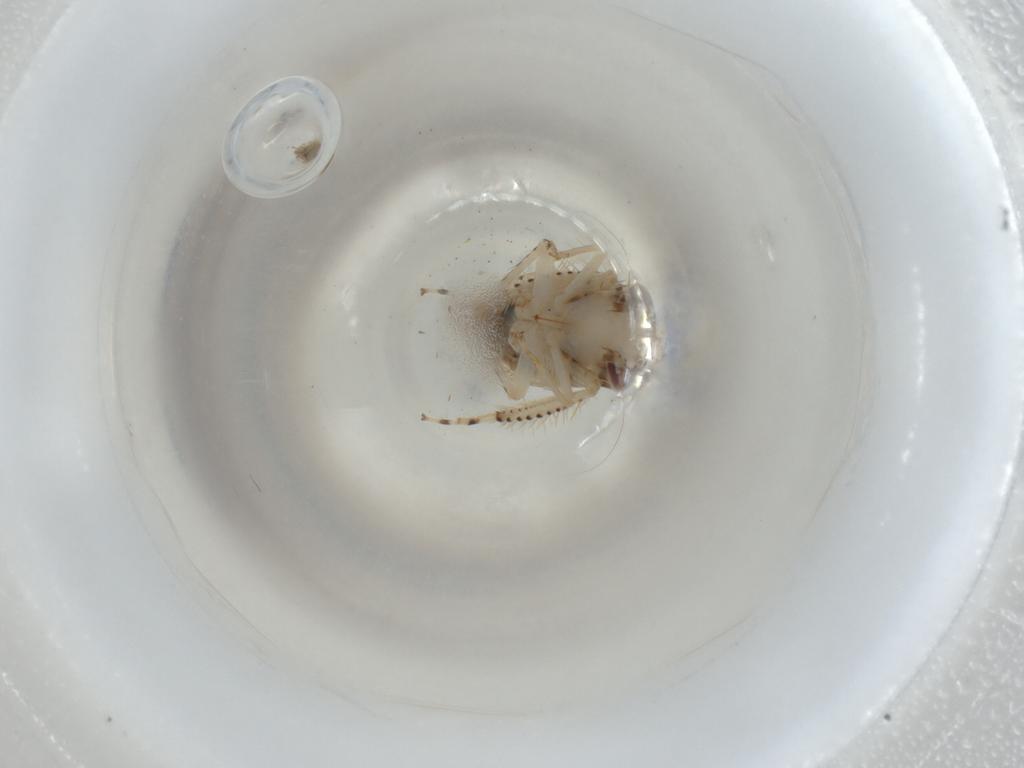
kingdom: Animalia
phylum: Arthropoda
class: Insecta
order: Hemiptera
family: Cicadellidae
